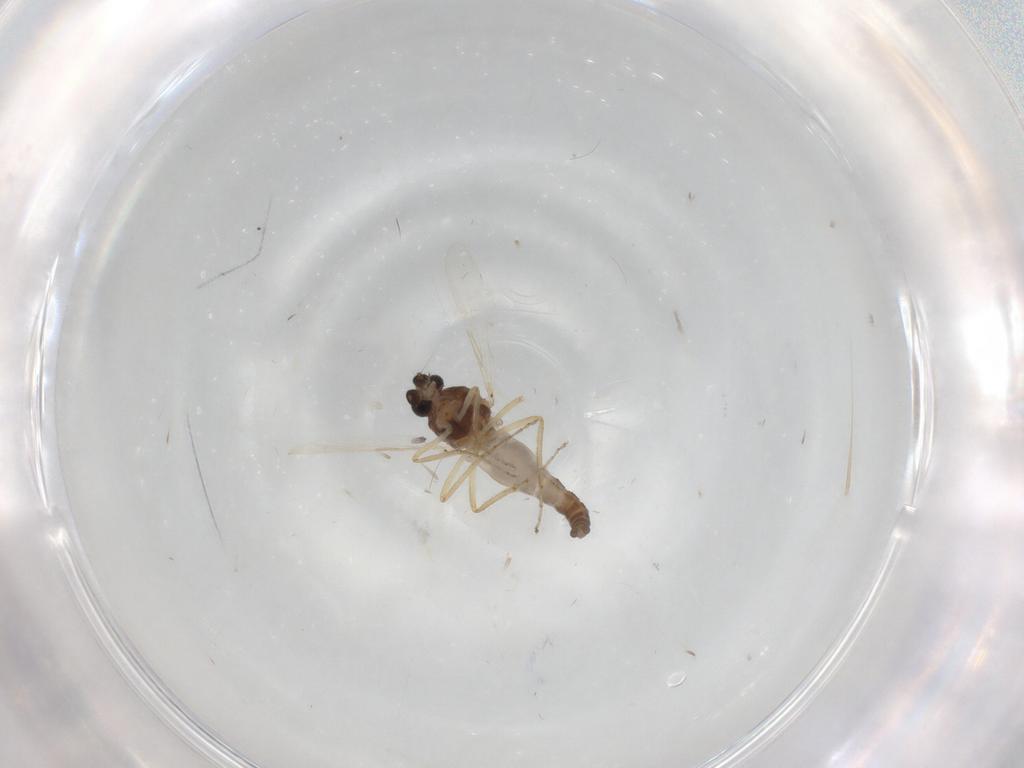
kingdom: Animalia
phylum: Arthropoda
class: Insecta
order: Diptera
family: Ceratopogonidae
